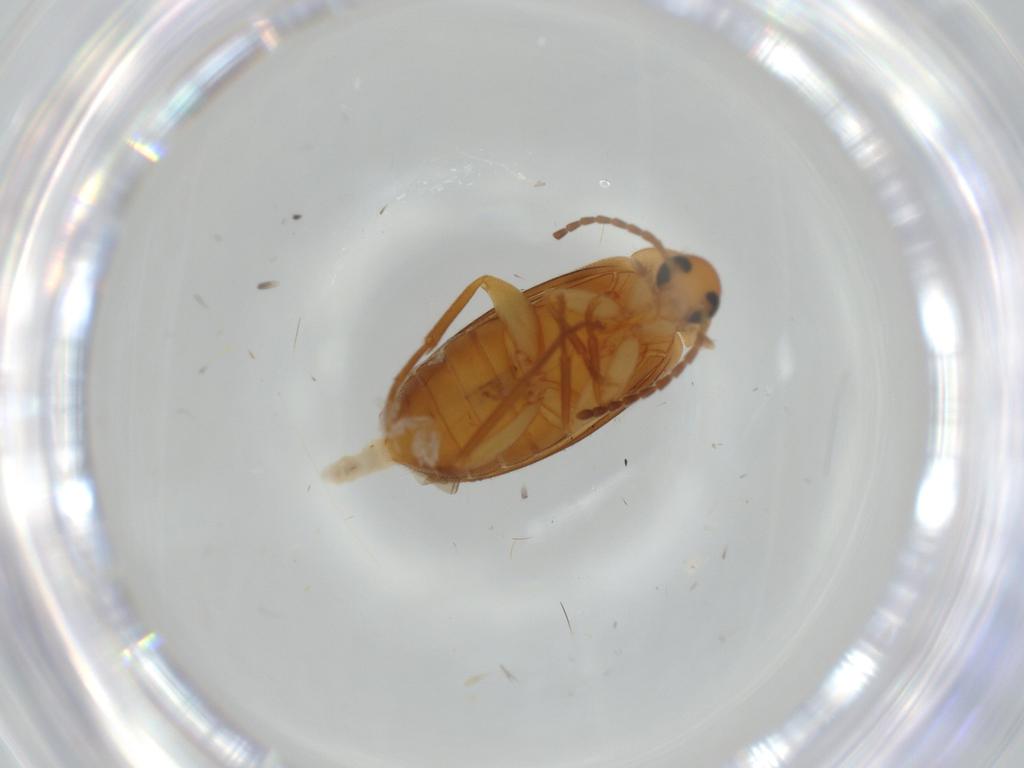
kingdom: Animalia
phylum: Arthropoda
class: Insecta
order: Coleoptera
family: Scraptiidae
